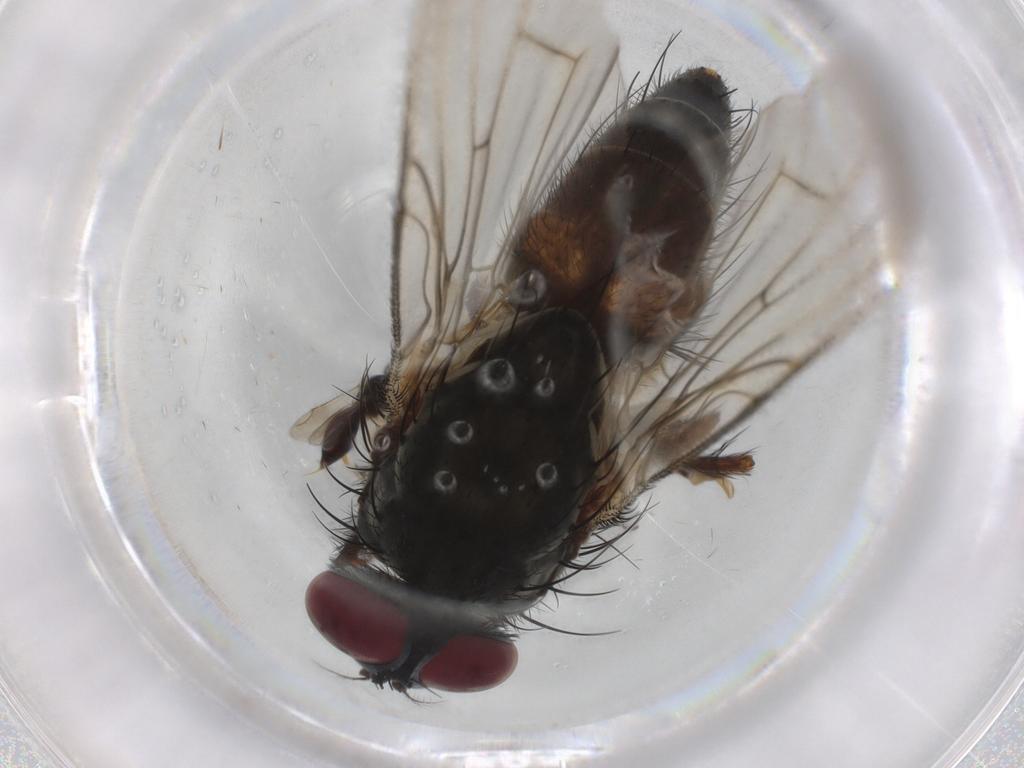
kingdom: Animalia
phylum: Arthropoda
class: Insecta
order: Diptera
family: Muscidae
